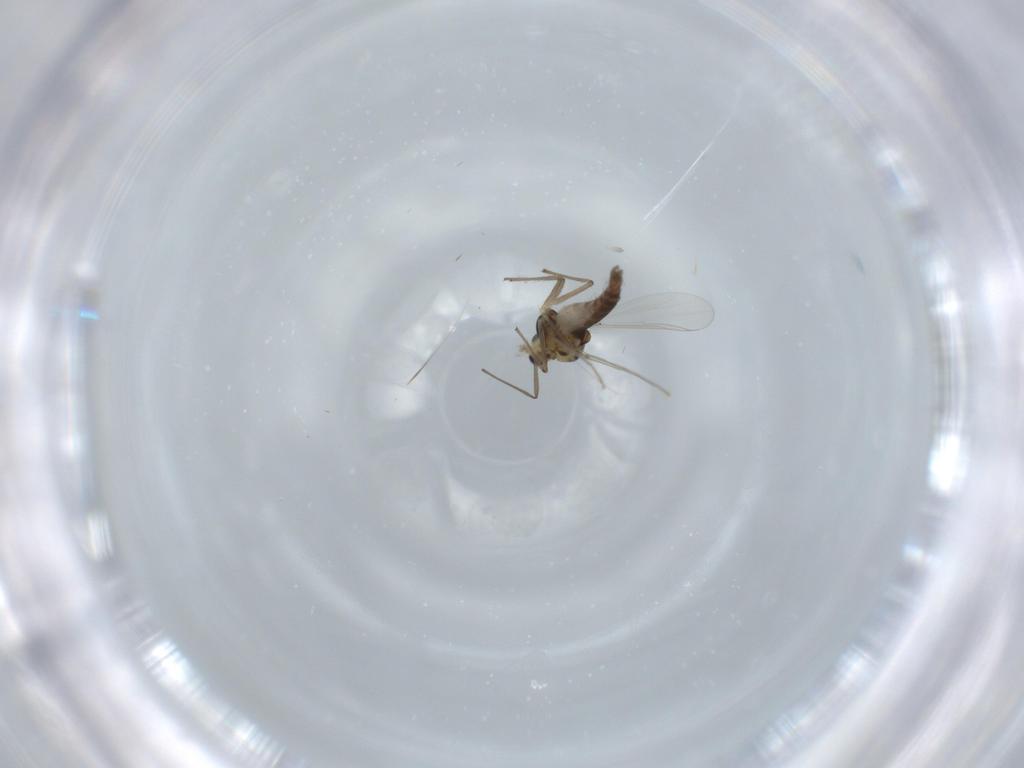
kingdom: Animalia
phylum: Arthropoda
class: Insecta
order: Diptera
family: Chironomidae
